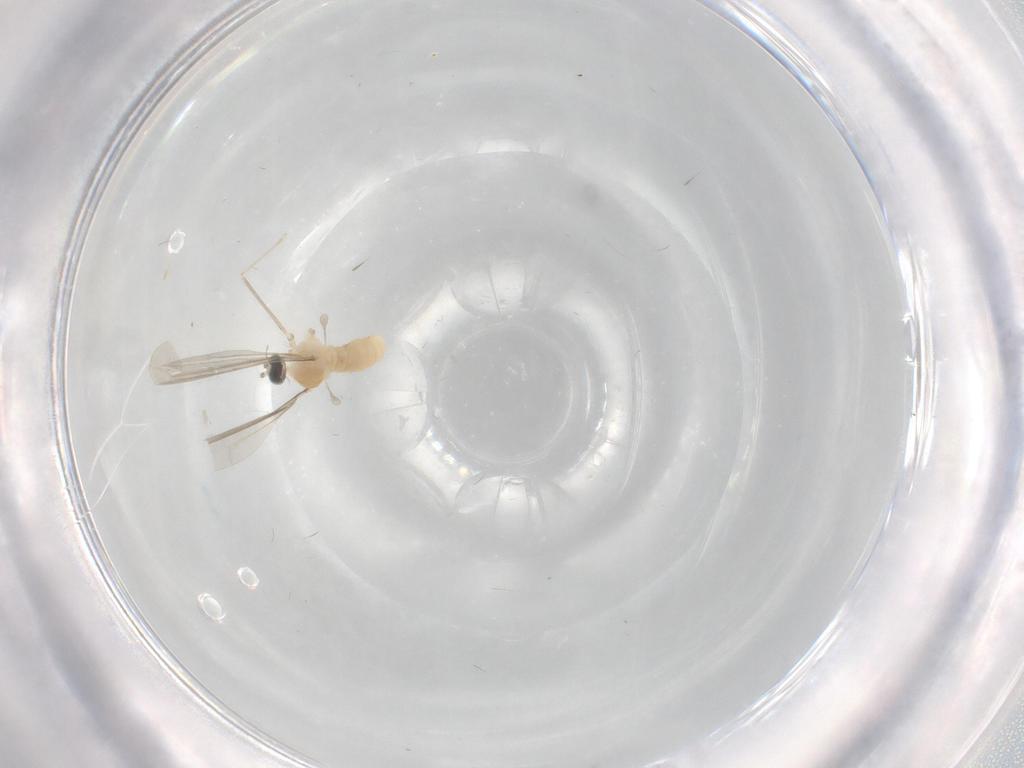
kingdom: Animalia
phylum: Arthropoda
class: Insecta
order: Diptera
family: Cecidomyiidae
